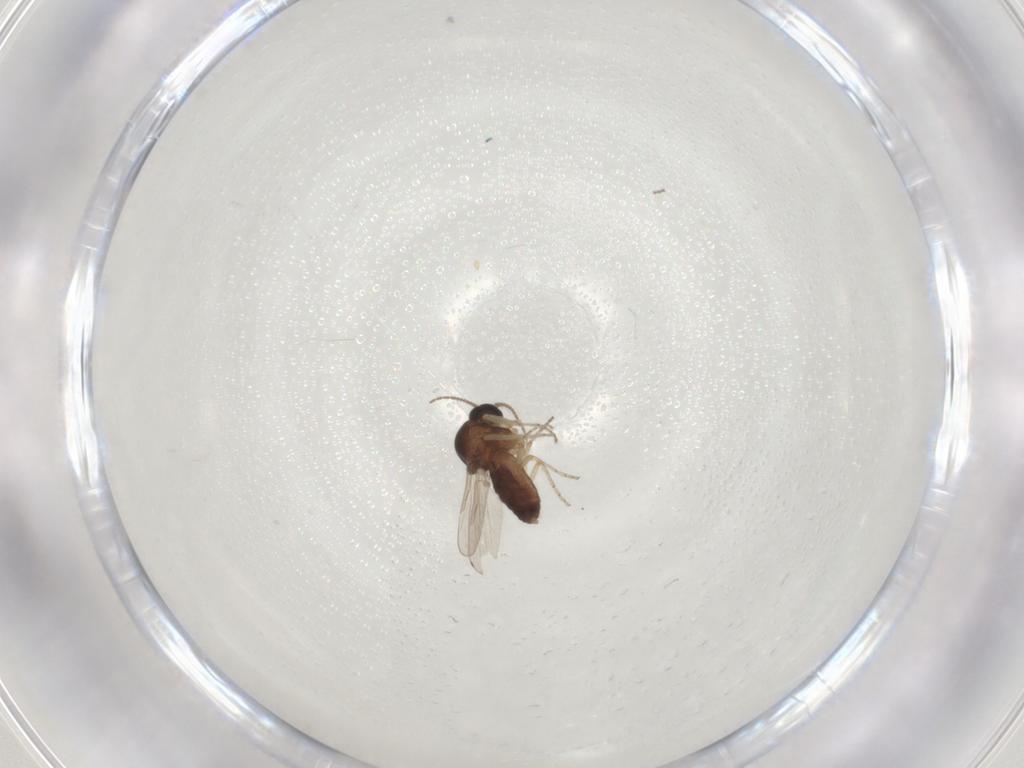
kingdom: Animalia
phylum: Arthropoda
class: Insecta
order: Diptera
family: Ceratopogonidae
